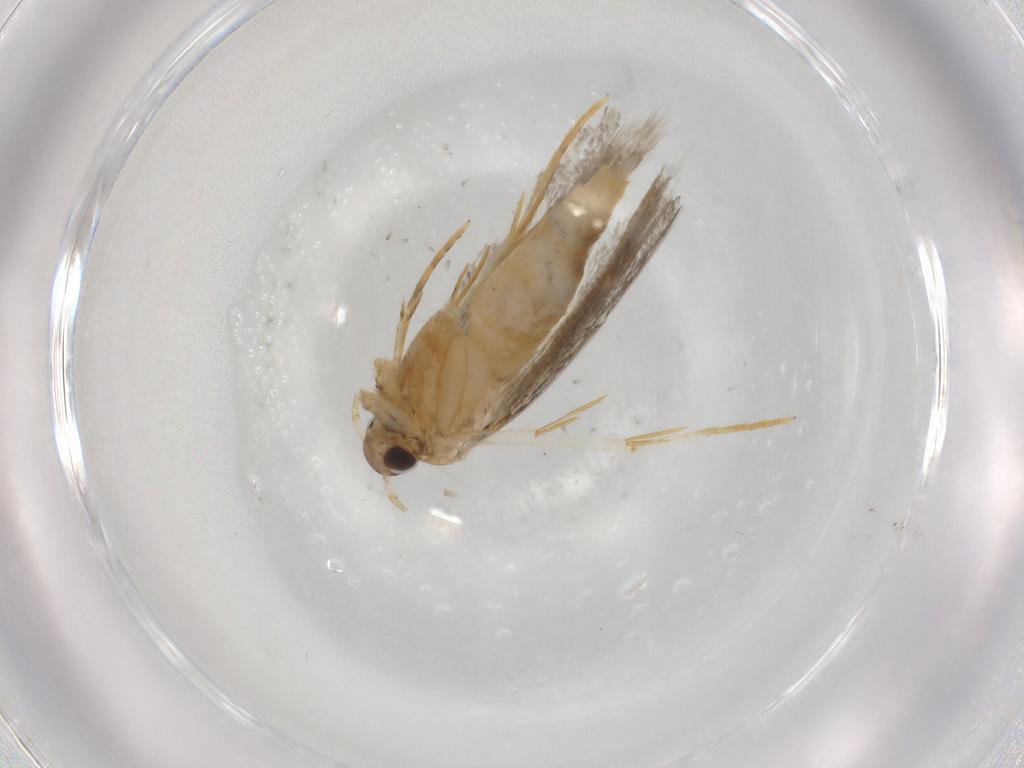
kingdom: Animalia
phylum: Arthropoda
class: Insecta
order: Lepidoptera
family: Autostichidae
